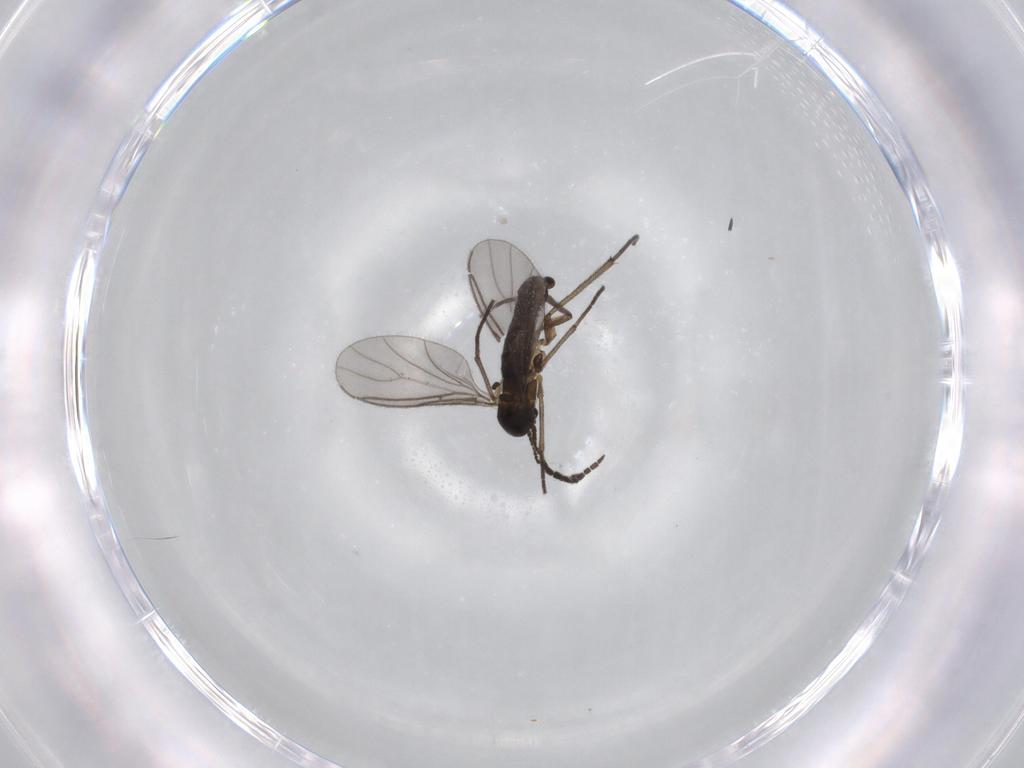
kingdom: Animalia
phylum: Arthropoda
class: Insecta
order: Diptera
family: Sciaridae
